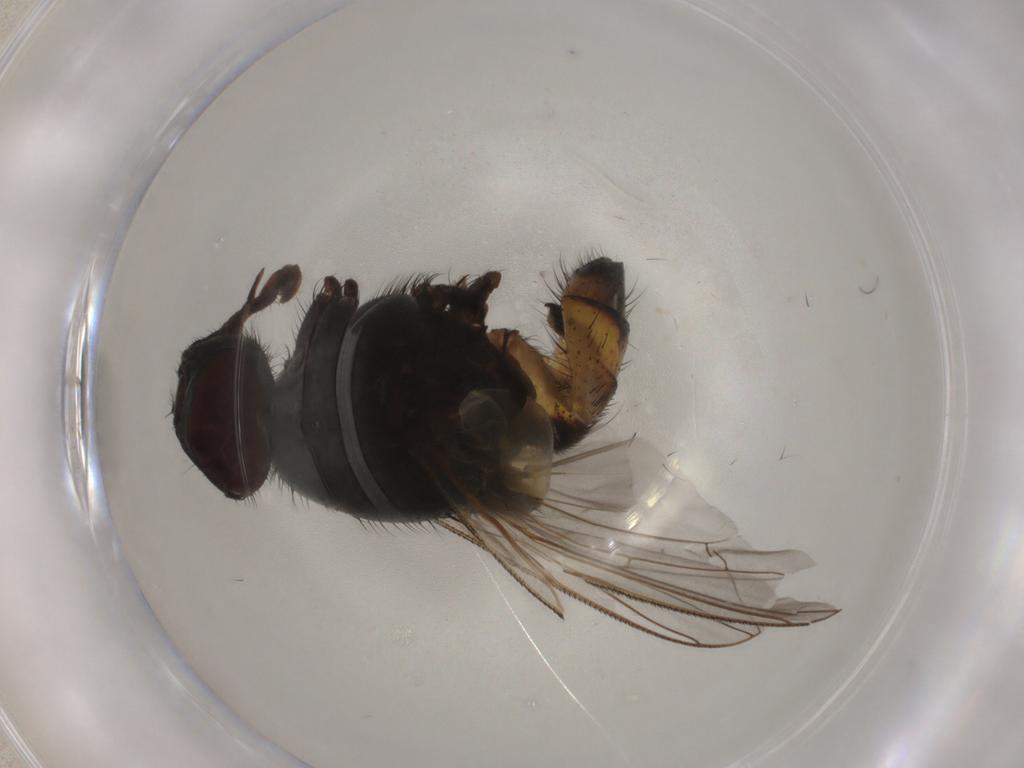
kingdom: Animalia
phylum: Arthropoda
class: Insecta
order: Diptera
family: Muscidae
